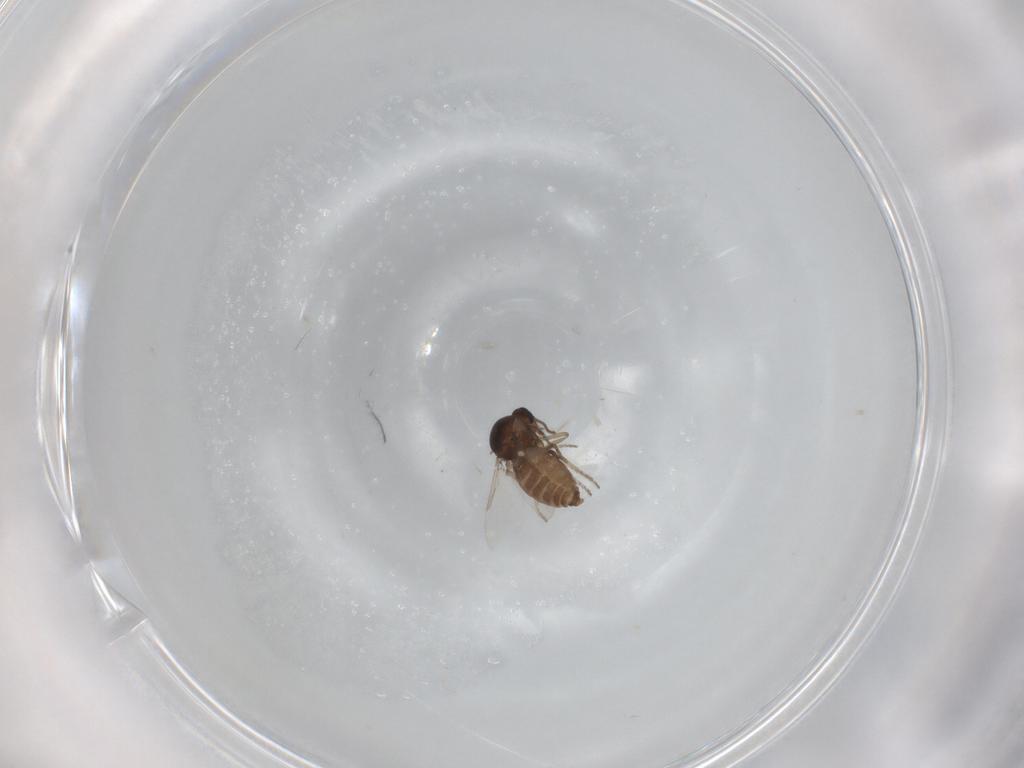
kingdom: Animalia
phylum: Arthropoda
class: Insecta
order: Diptera
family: Ceratopogonidae
